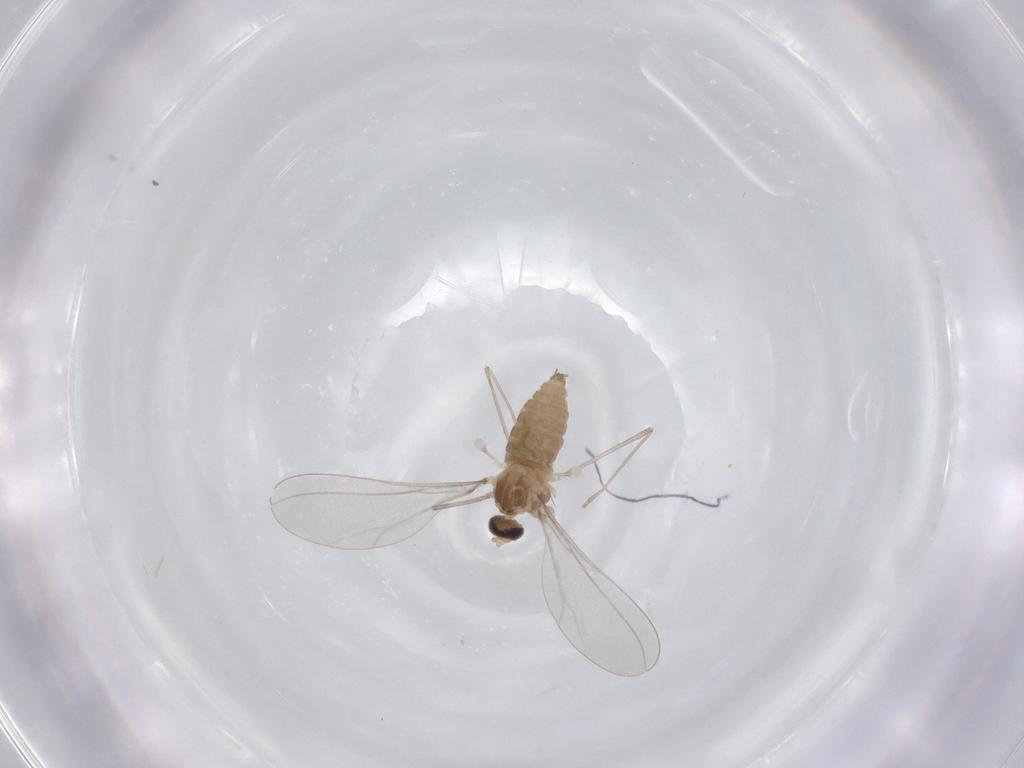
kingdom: Animalia
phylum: Arthropoda
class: Insecta
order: Diptera
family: Cecidomyiidae
